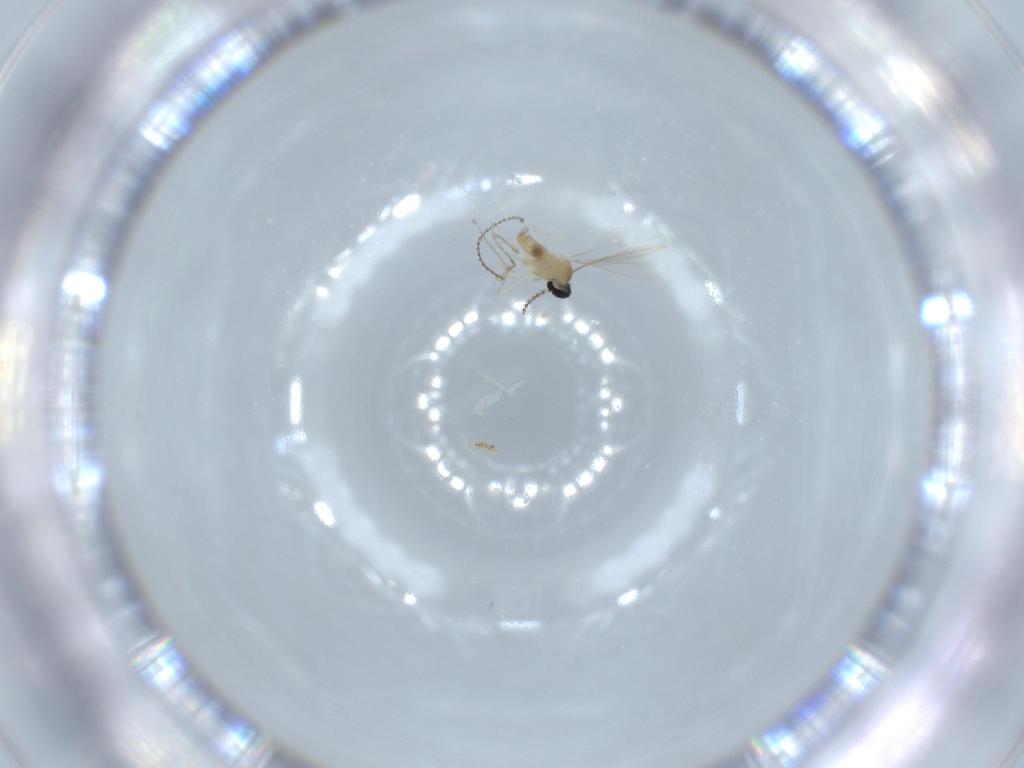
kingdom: Animalia
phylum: Arthropoda
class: Insecta
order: Diptera
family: Cecidomyiidae
